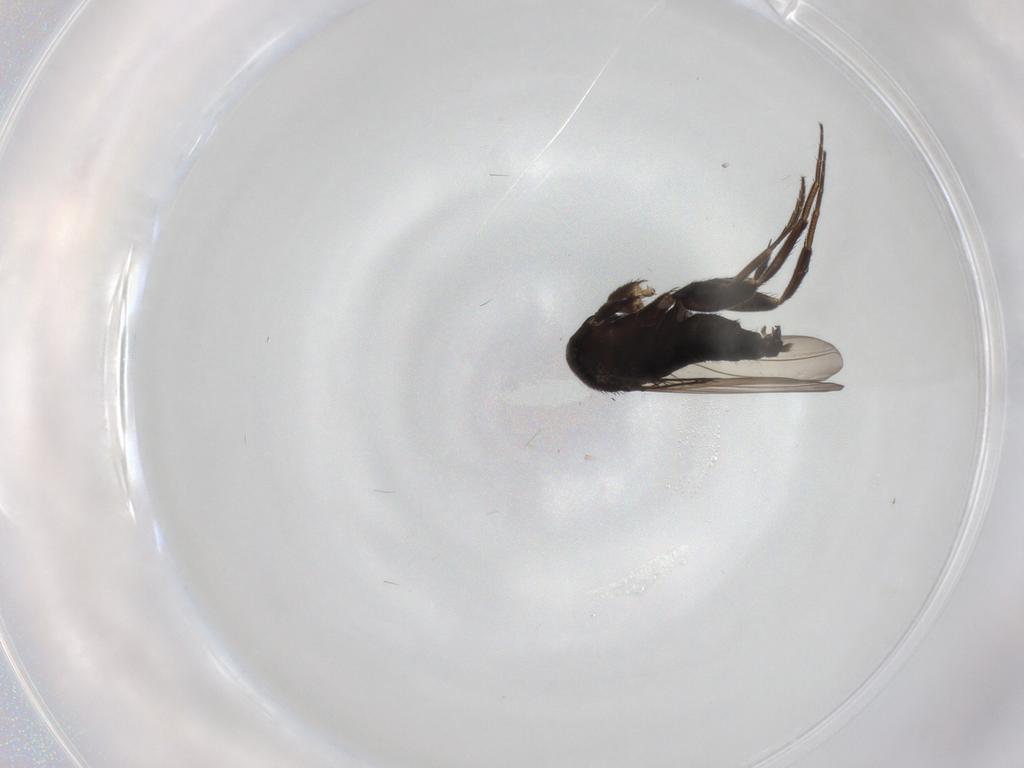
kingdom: Animalia
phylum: Arthropoda
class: Insecta
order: Diptera
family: Phoridae
